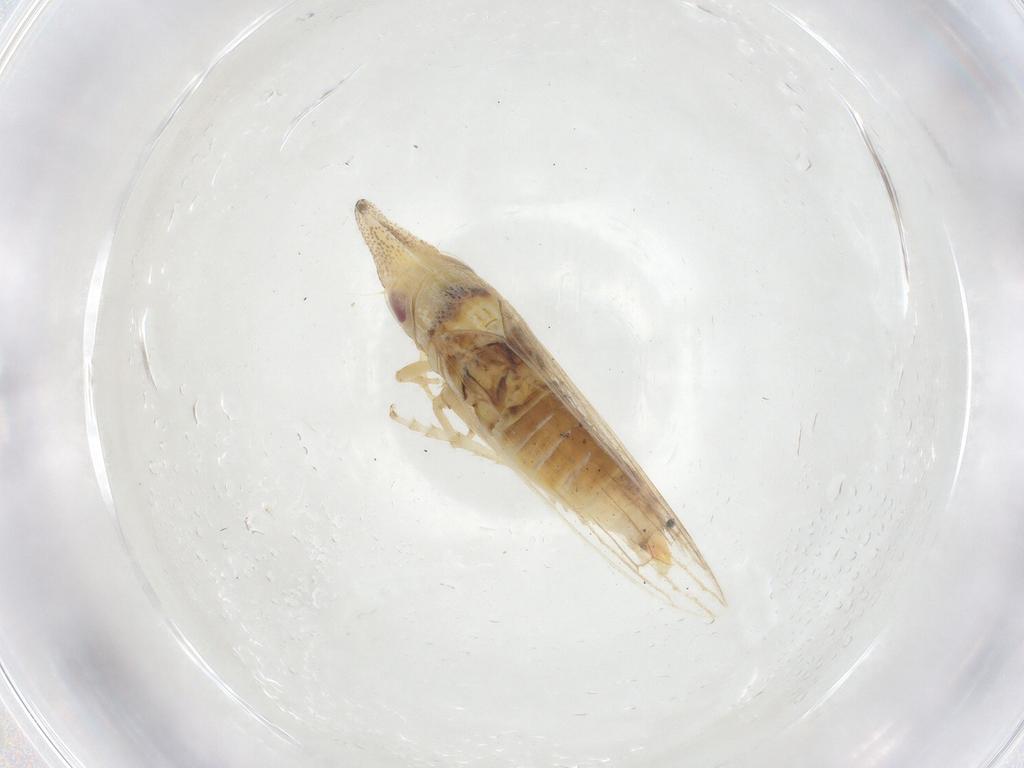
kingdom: Animalia
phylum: Arthropoda
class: Insecta
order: Hemiptera
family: Cicadellidae
